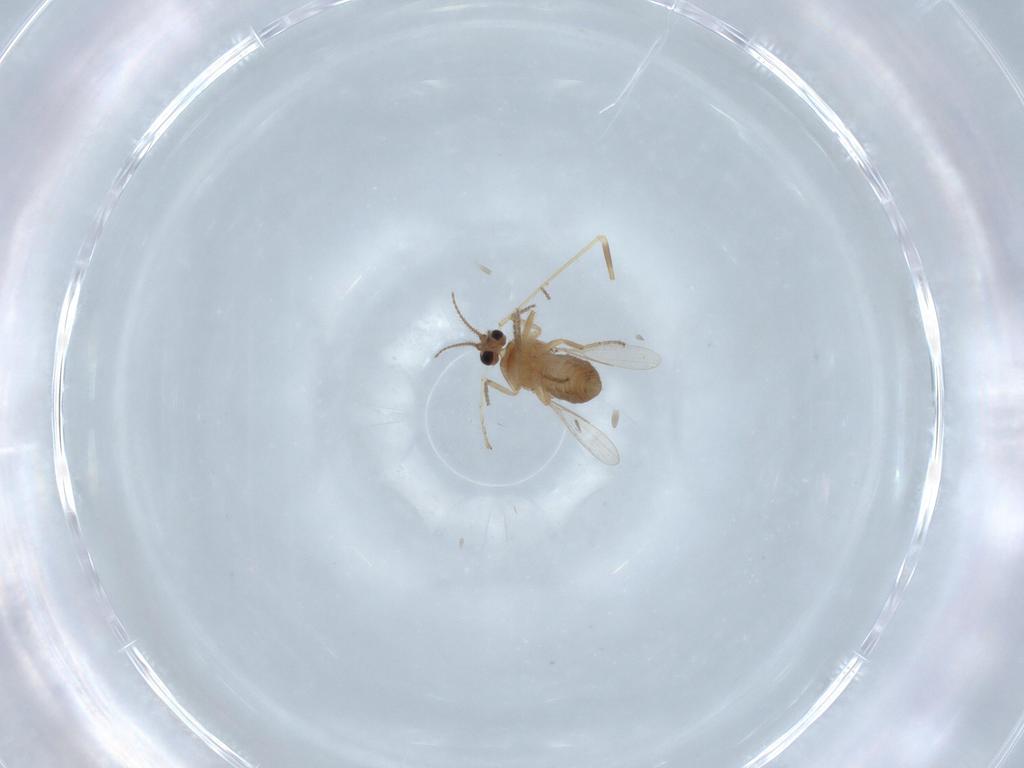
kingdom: Animalia
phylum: Arthropoda
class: Insecta
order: Diptera
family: Ceratopogonidae
